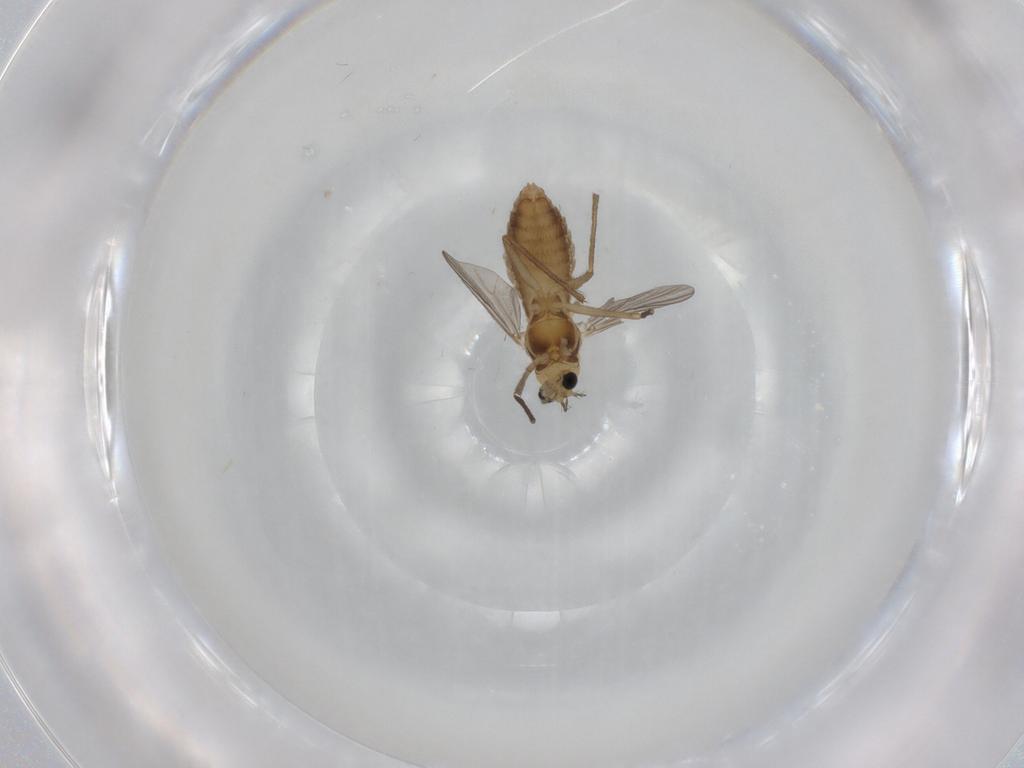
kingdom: Animalia
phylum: Arthropoda
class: Insecta
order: Diptera
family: Chironomidae
